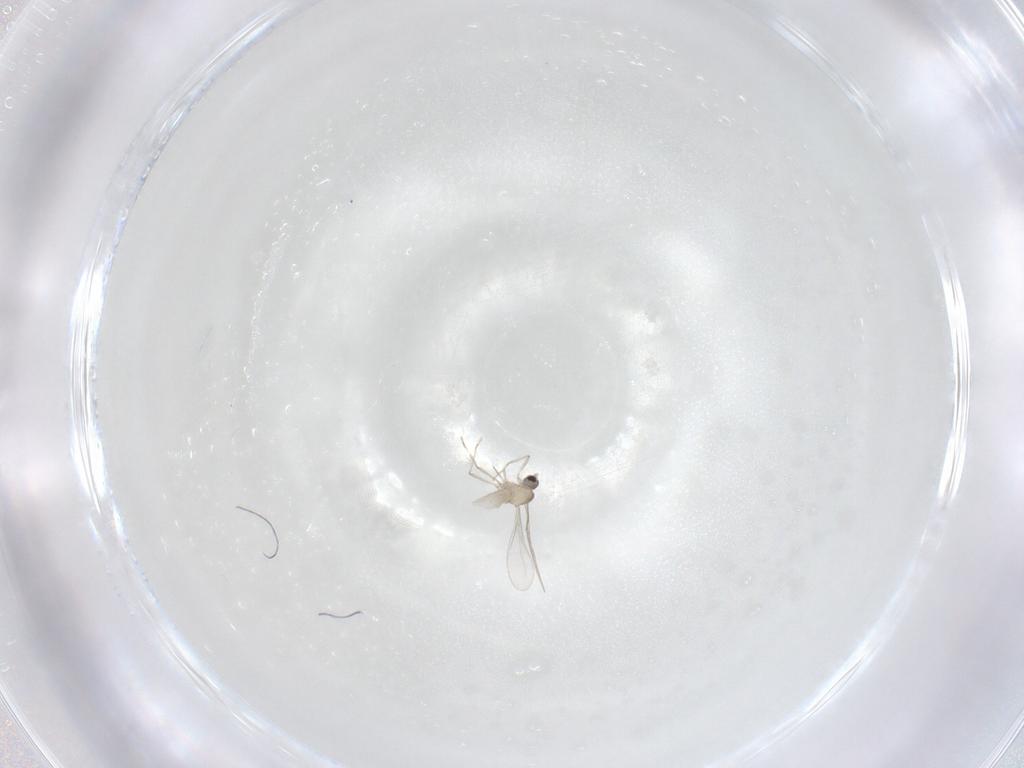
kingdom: Animalia
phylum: Arthropoda
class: Insecta
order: Diptera
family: Cecidomyiidae
